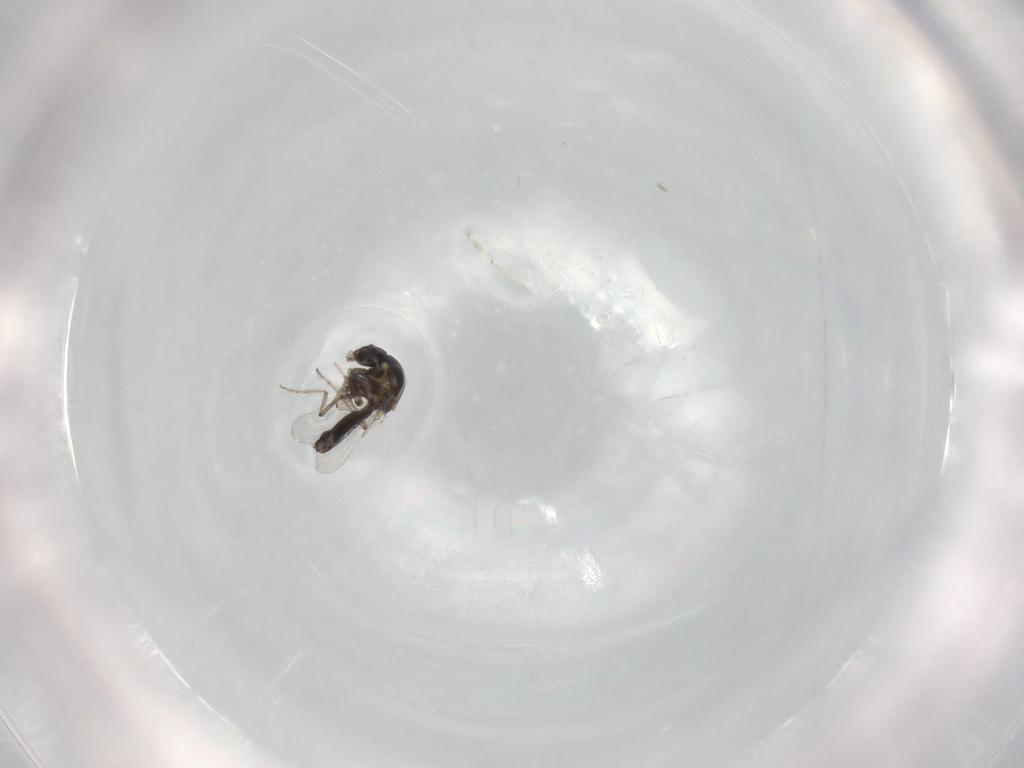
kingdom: Animalia
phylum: Arthropoda
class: Insecta
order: Diptera
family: Ceratopogonidae
